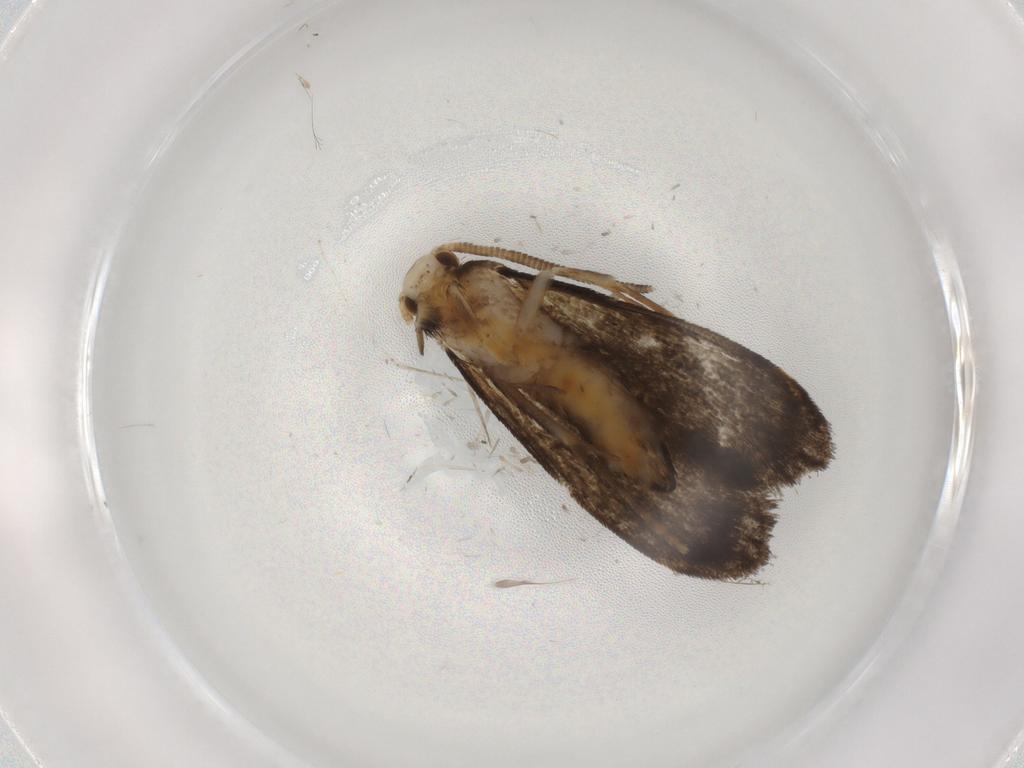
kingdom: Animalia
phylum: Arthropoda
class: Insecta
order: Lepidoptera
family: Dryadaulidae
